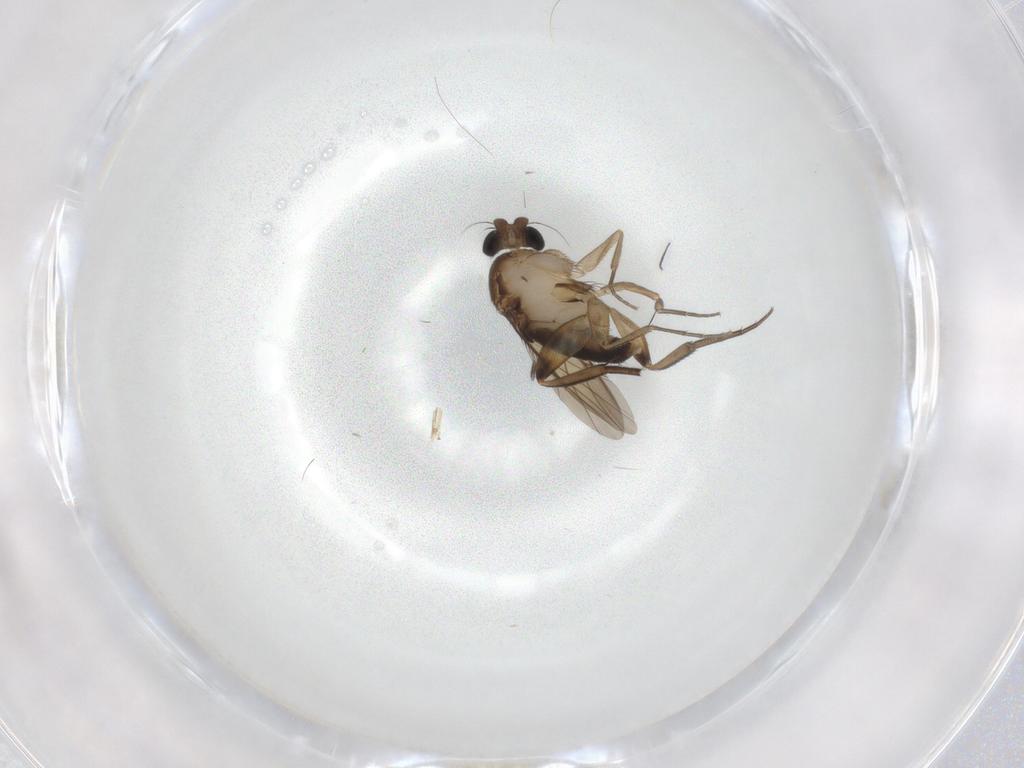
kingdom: Animalia
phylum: Arthropoda
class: Insecta
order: Diptera
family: Phoridae
